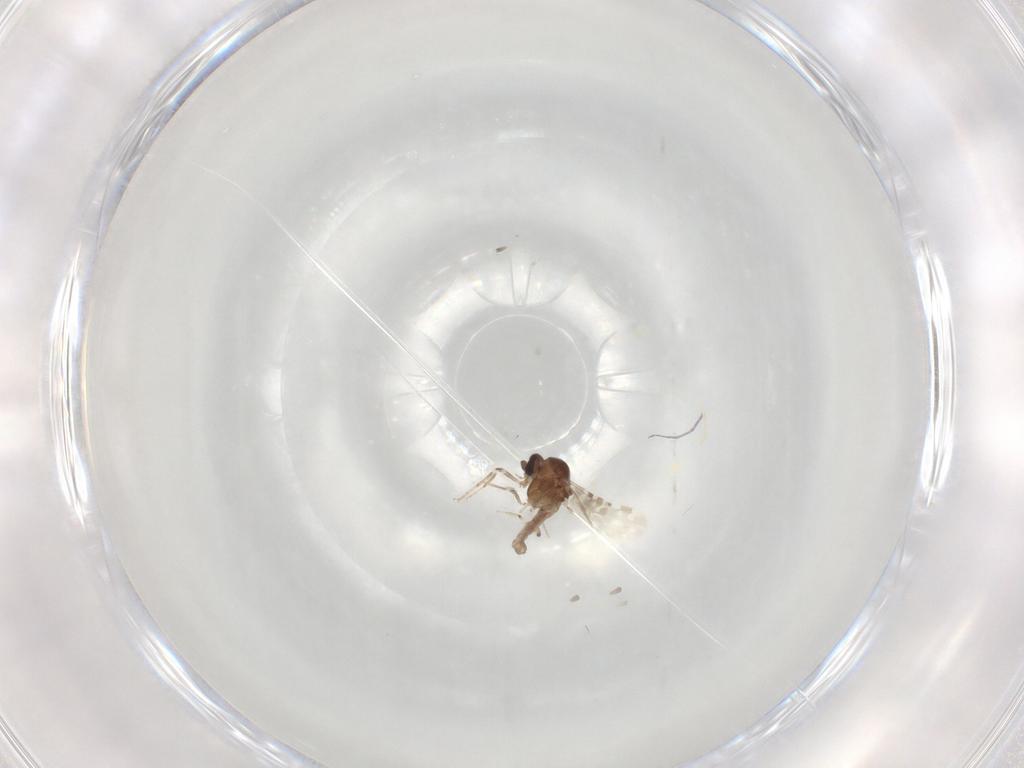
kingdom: Animalia
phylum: Arthropoda
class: Insecta
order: Diptera
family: Ceratopogonidae
